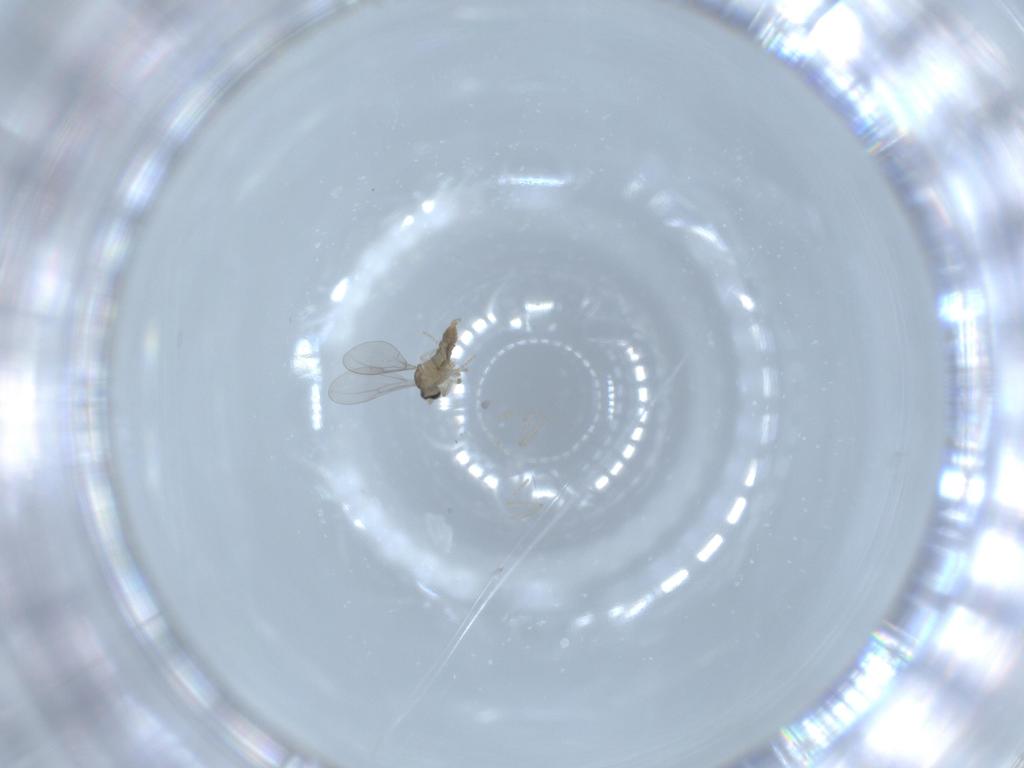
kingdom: Animalia
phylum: Arthropoda
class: Insecta
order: Diptera
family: Cecidomyiidae
